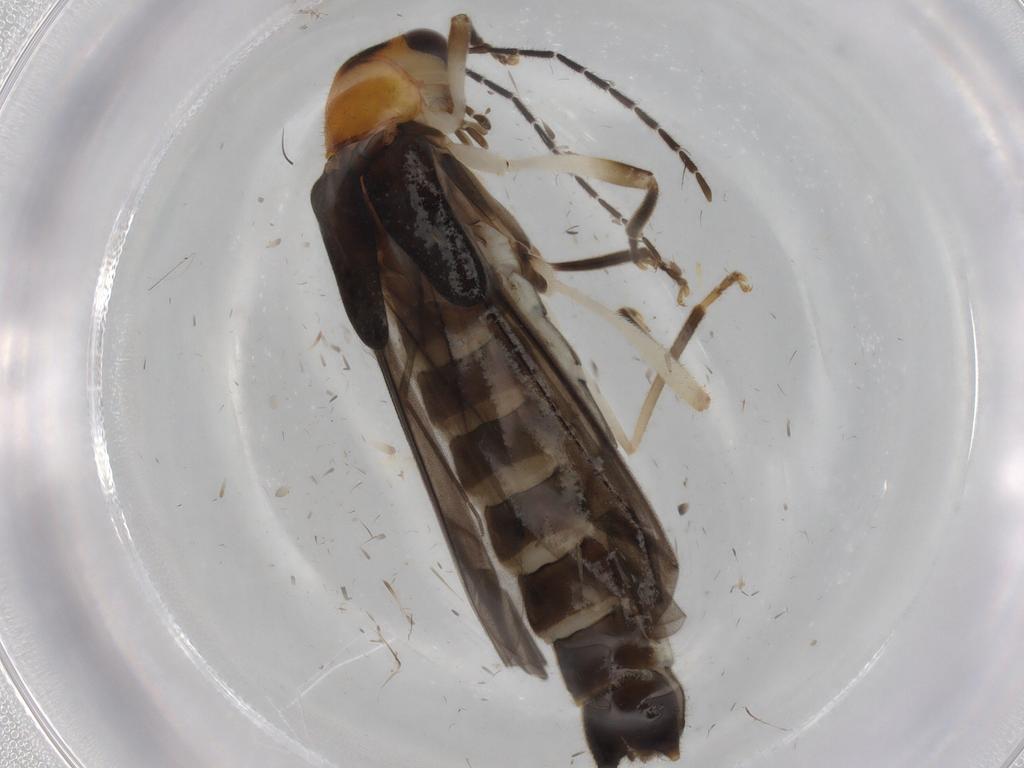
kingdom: Animalia
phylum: Arthropoda
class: Insecta
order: Coleoptera
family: Cantharidae
